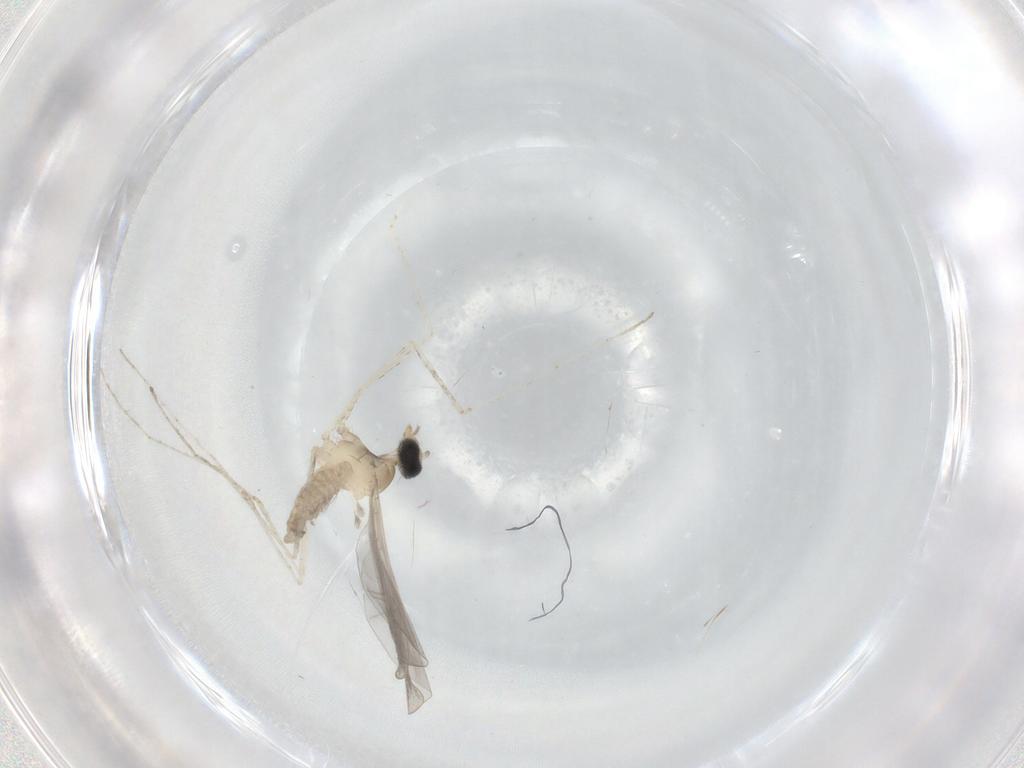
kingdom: Animalia
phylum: Arthropoda
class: Insecta
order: Diptera
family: Cecidomyiidae
